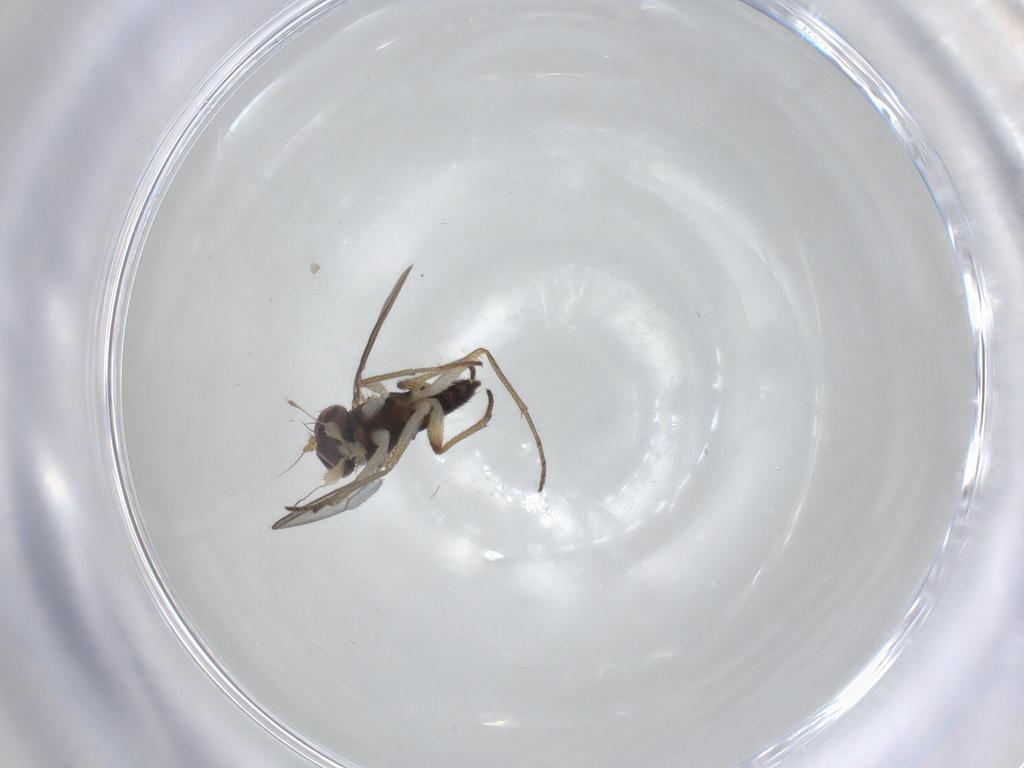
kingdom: Animalia
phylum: Arthropoda
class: Insecta
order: Diptera
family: Dolichopodidae
